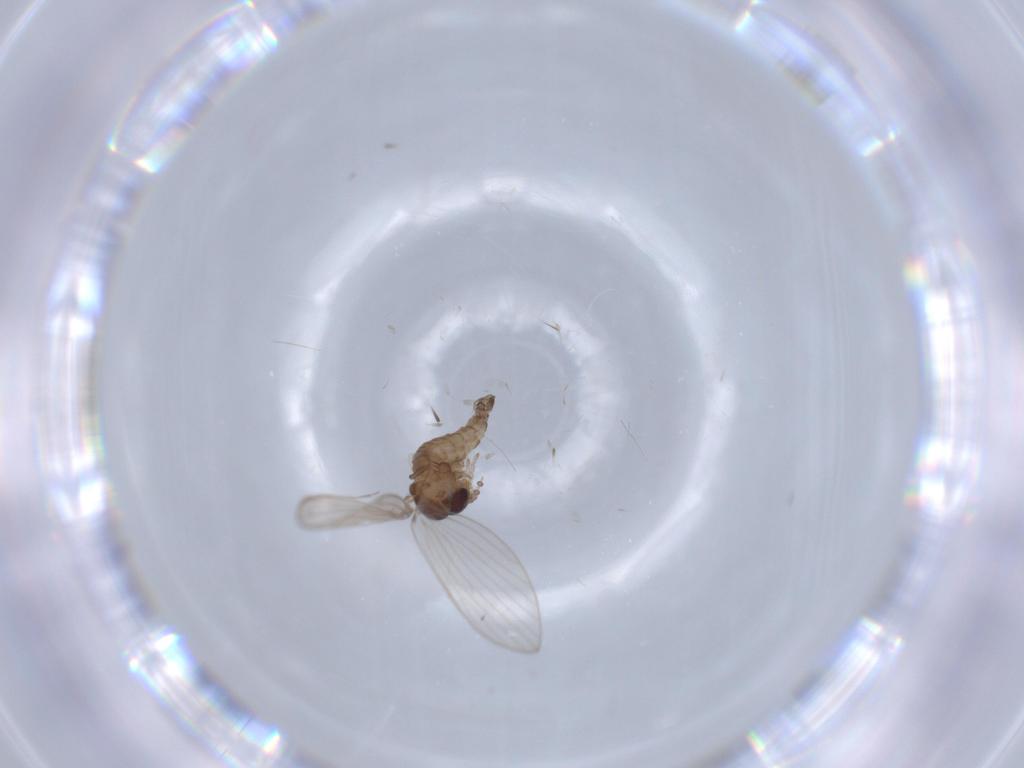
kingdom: Animalia
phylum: Arthropoda
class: Insecta
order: Diptera
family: Psychodidae
